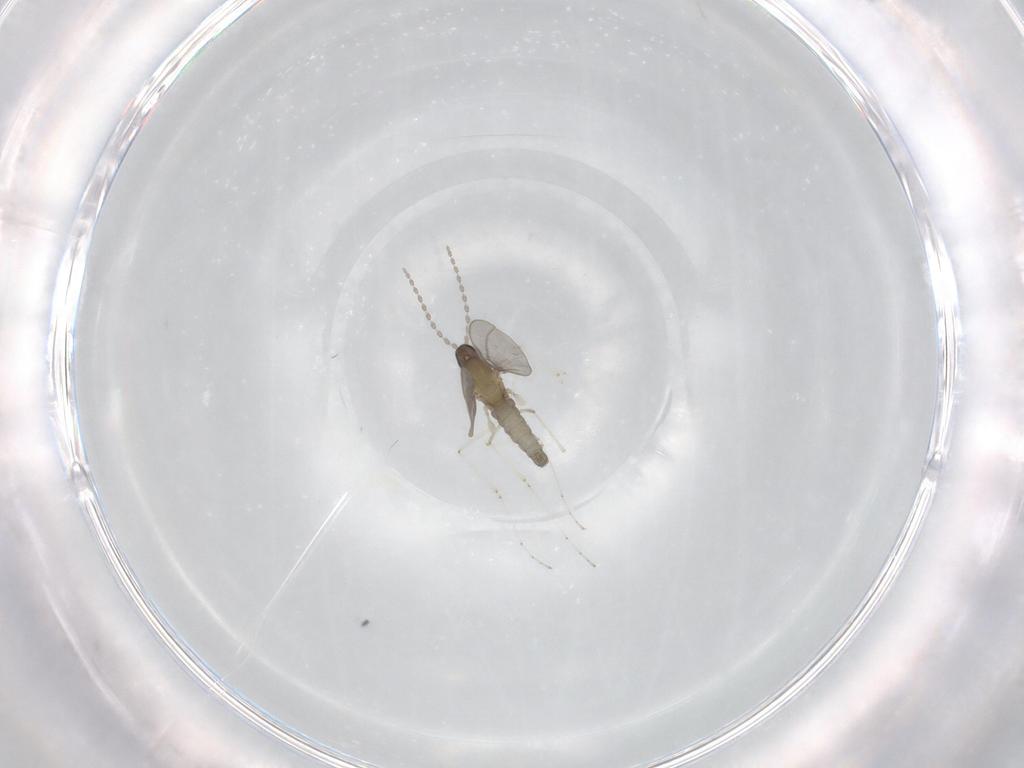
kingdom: Animalia
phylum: Arthropoda
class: Insecta
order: Diptera
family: Cecidomyiidae
